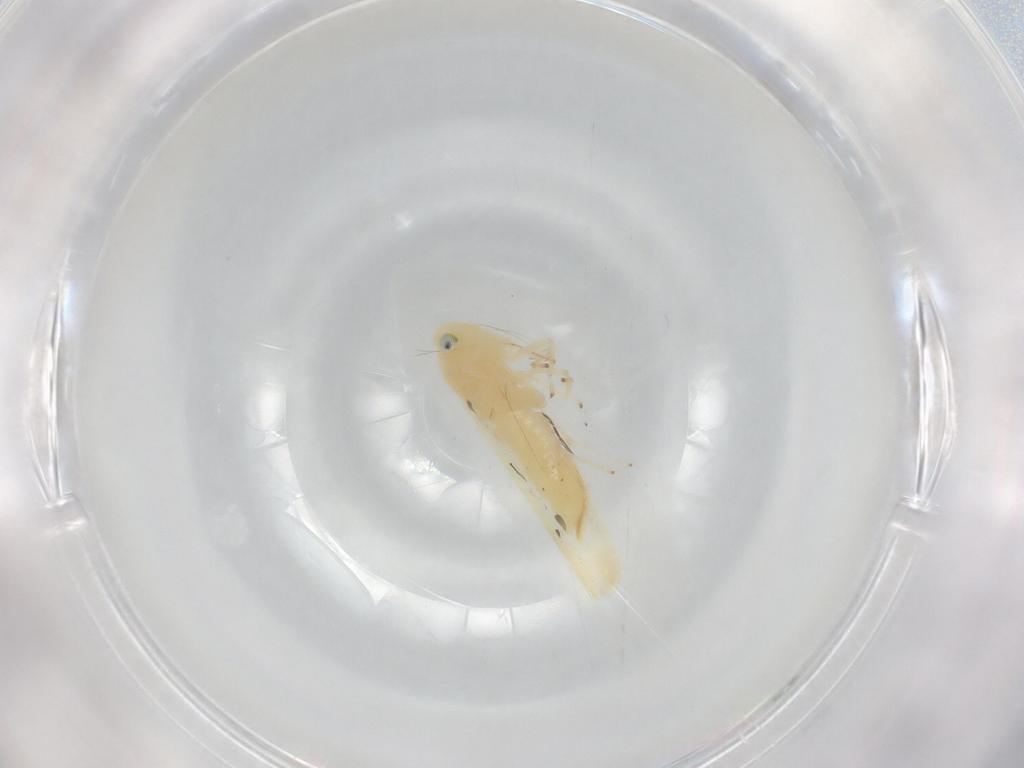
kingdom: Animalia
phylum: Arthropoda
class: Insecta
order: Hemiptera
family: Cicadellidae
